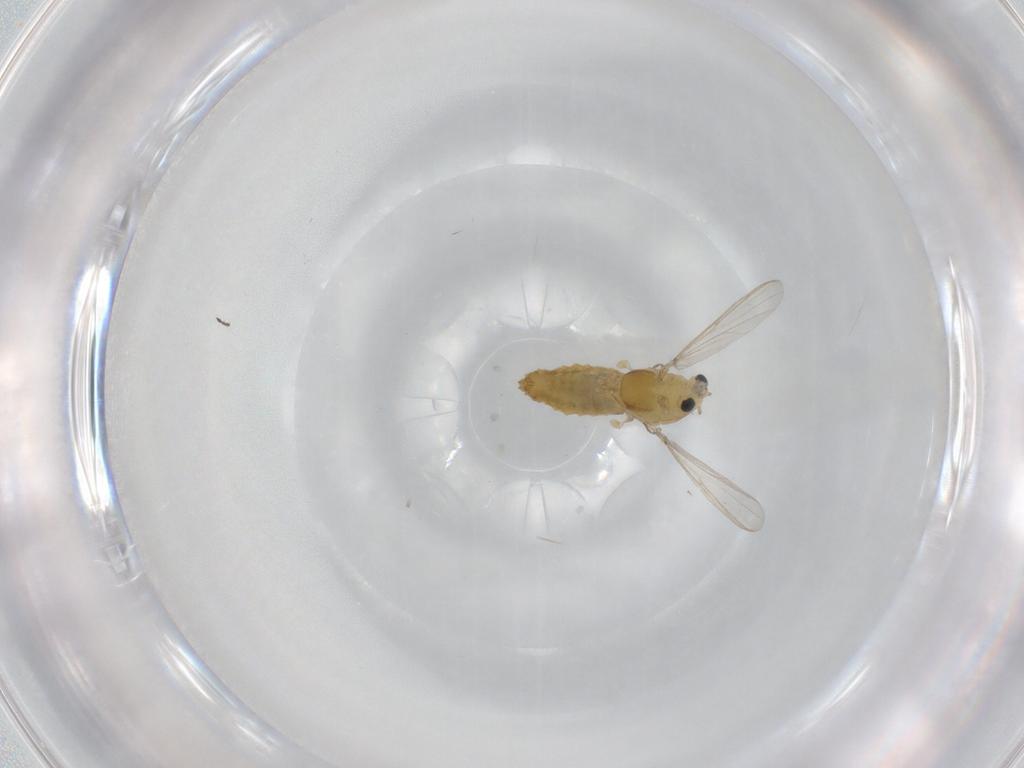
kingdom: Animalia
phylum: Arthropoda
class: Insecta
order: Diptera
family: Chironomidae
